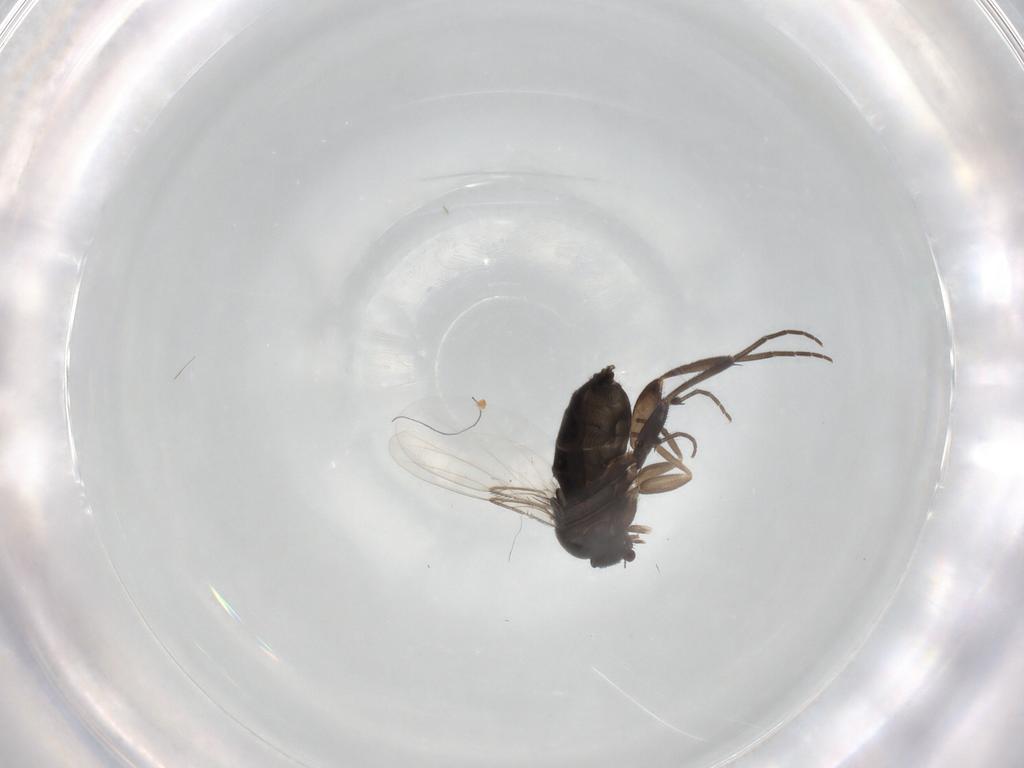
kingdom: Animalia
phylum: Arthropoda
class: Insecta
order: Diptera
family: Phoridae
